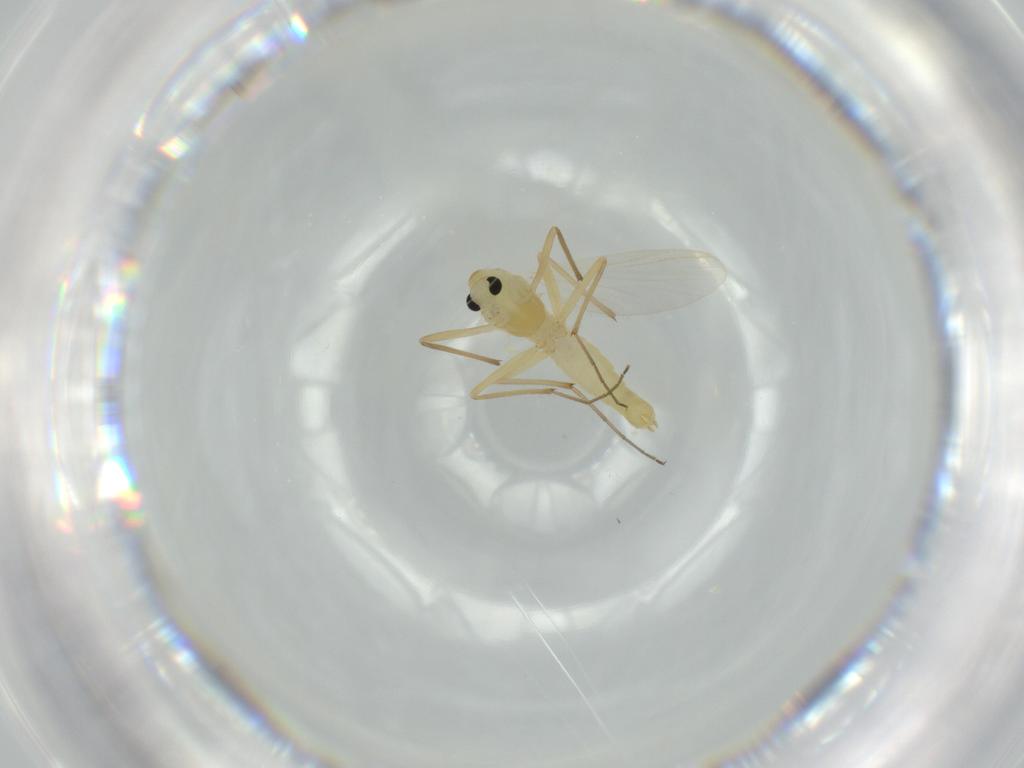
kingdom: Animalia
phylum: Arthropoda
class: Insecta
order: Diptera
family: Chironomidae
